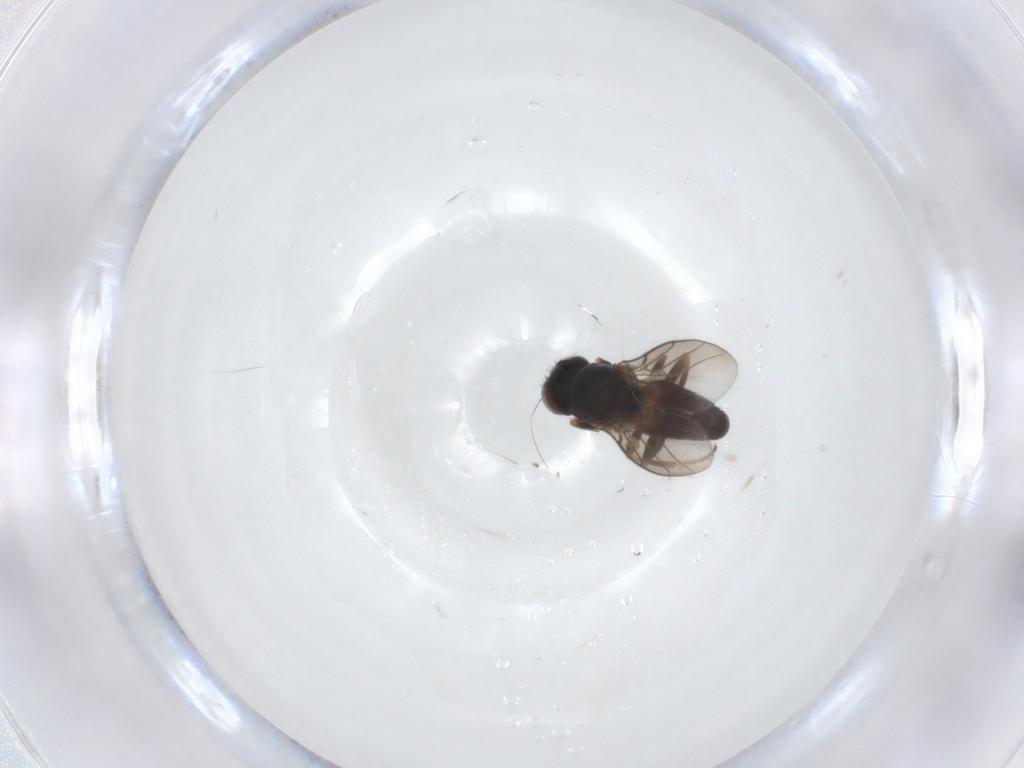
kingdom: Animalia
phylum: Arthropoda
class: Insecta
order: Diptera
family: Chloropidae
